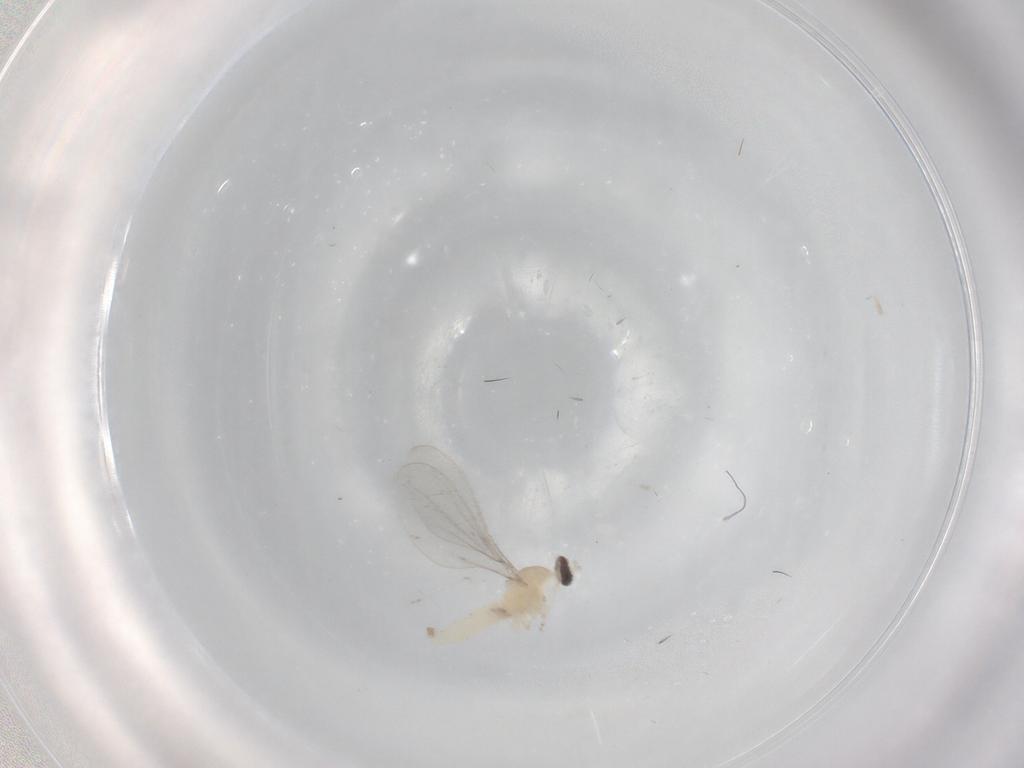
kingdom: Animalia
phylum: Arthropoda
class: Insecta
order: Diptera
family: Cecidomyiidae
